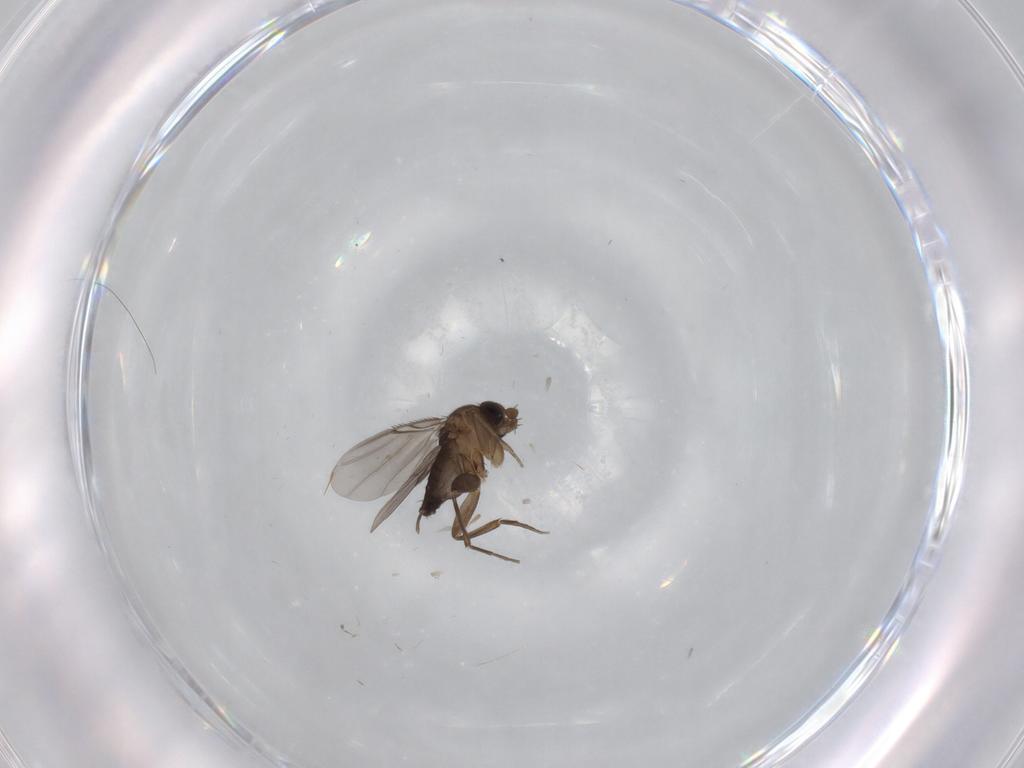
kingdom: Animalia
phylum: Arthropoda
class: Insecta
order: Diptera
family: Phoridae
